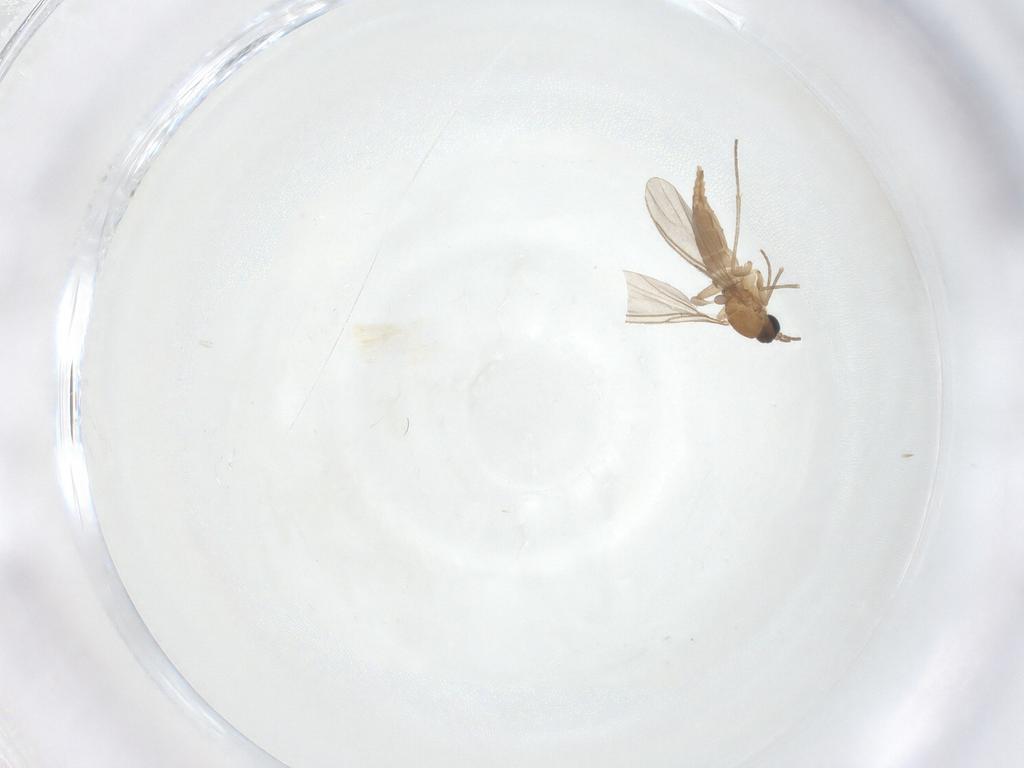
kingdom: Animalia
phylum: Arthropoda
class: Insecta
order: Diptera
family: Sciaridae
